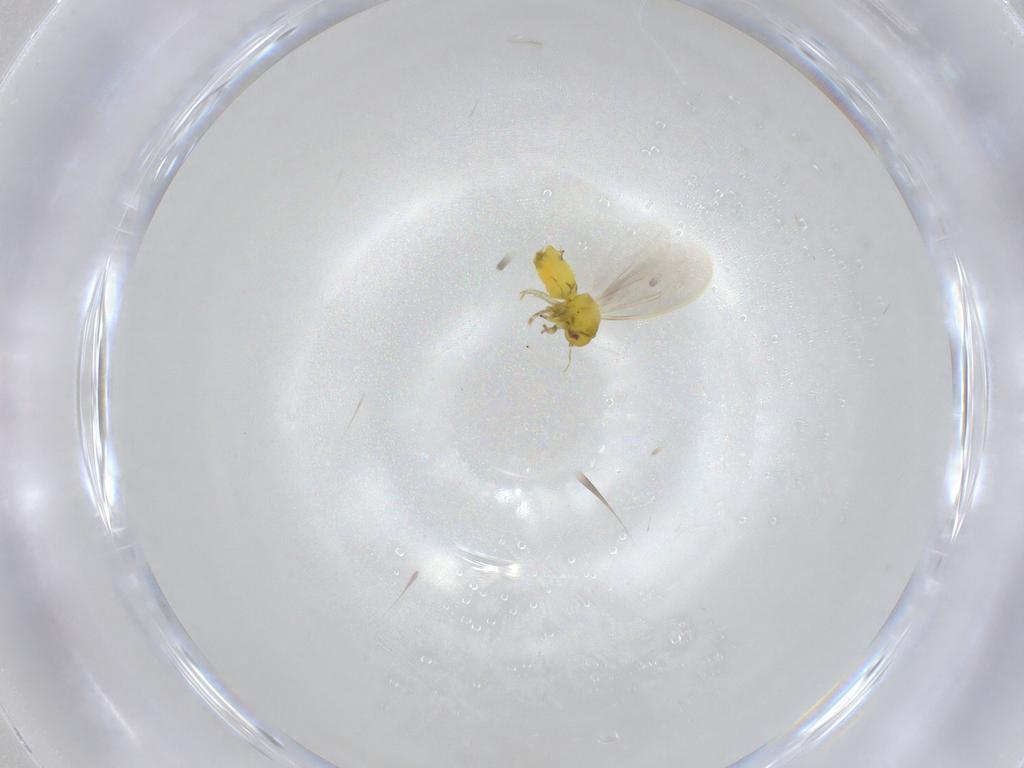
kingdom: Animalia
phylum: Arthropoda
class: Insecta
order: Hemiptera
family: Aleyrodidae
